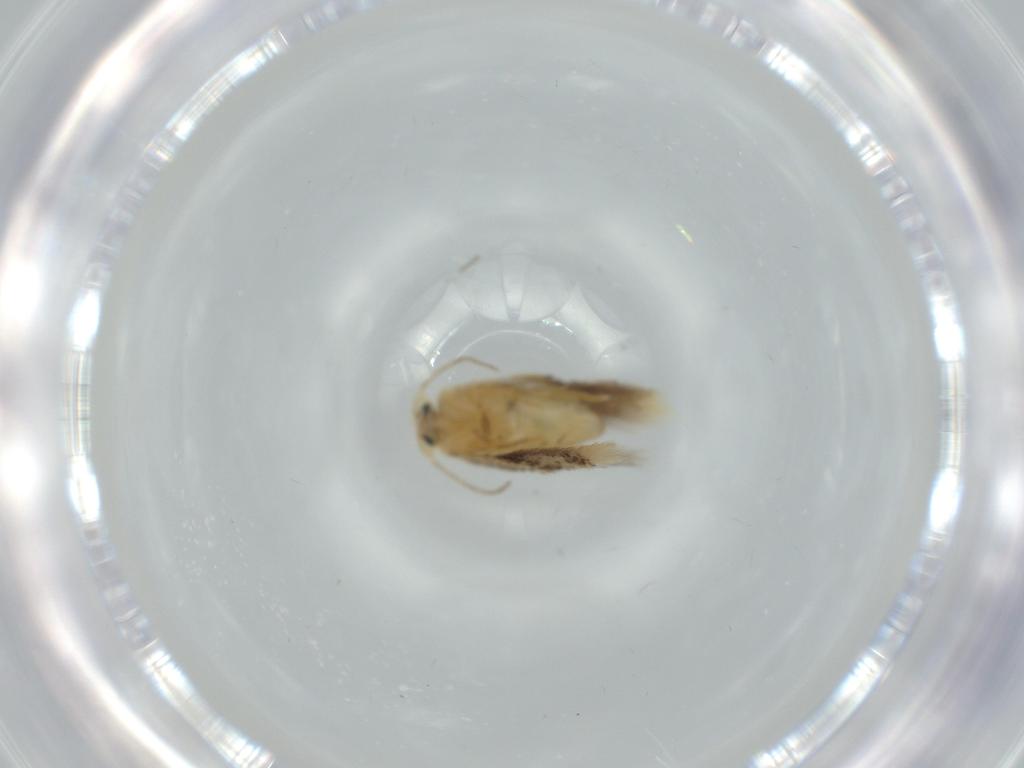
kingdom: Animalia
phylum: Arthropoda
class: Insecta
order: Lepidoptera
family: Nepticulidae
